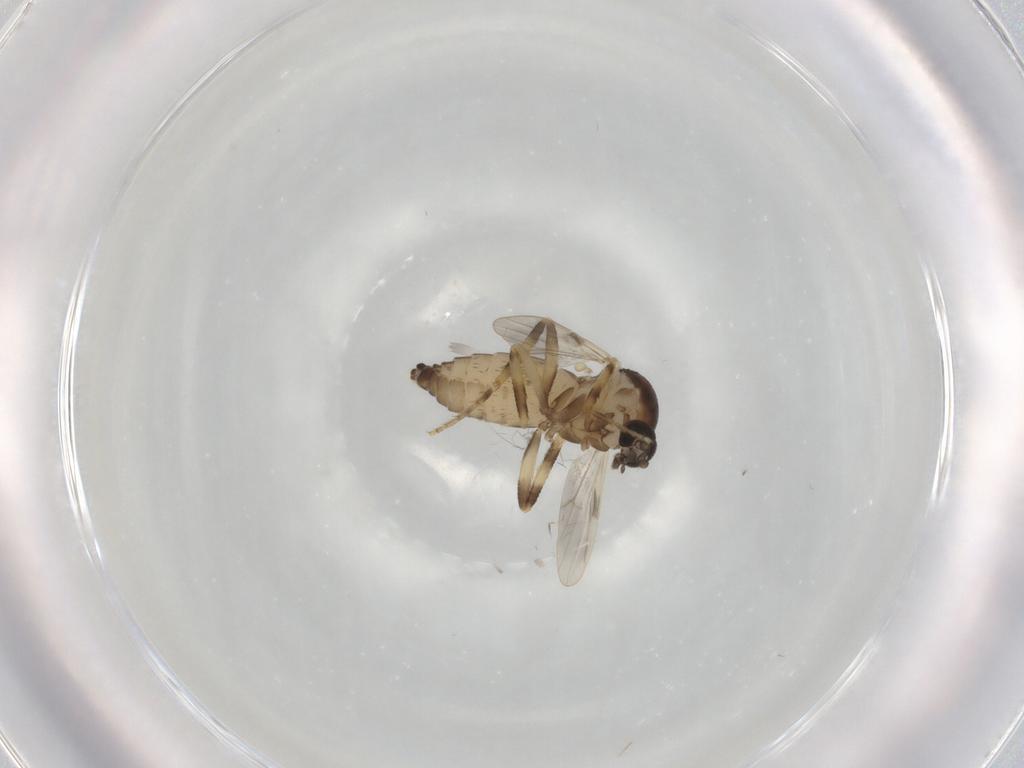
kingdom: Animalia
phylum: Arthropoda
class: Insecta
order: Diptera
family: Ceratopogonidae
